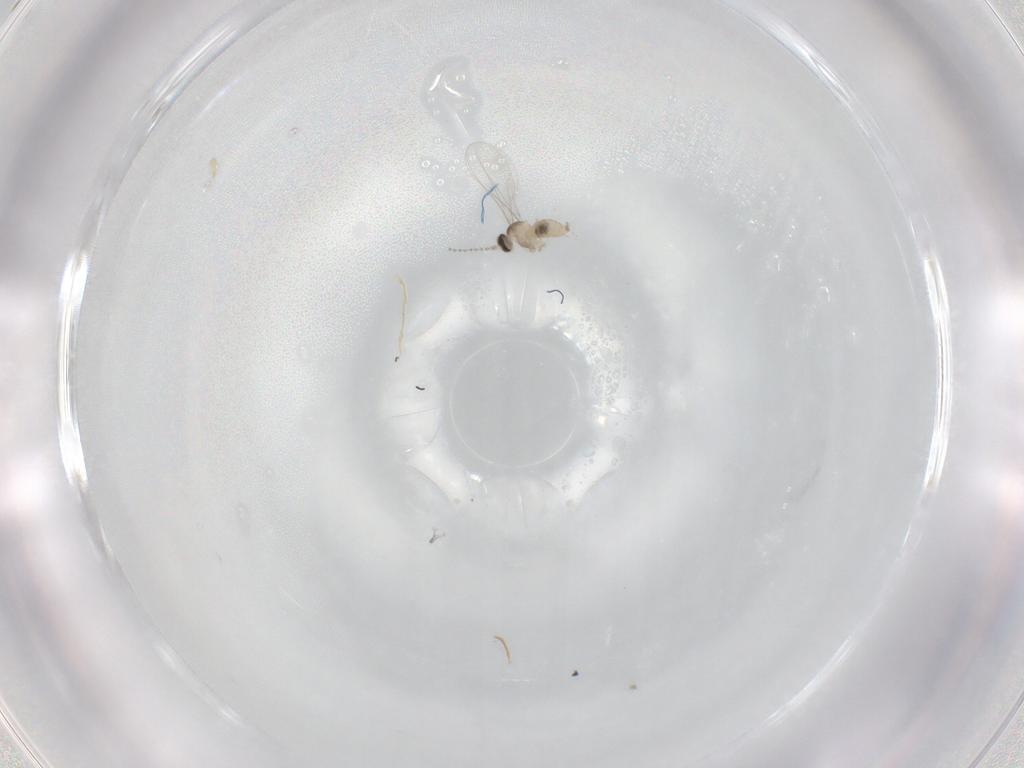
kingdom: Animalia
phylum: Arthropoda
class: Insecta
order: Diptera
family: Cecidomyiidae
